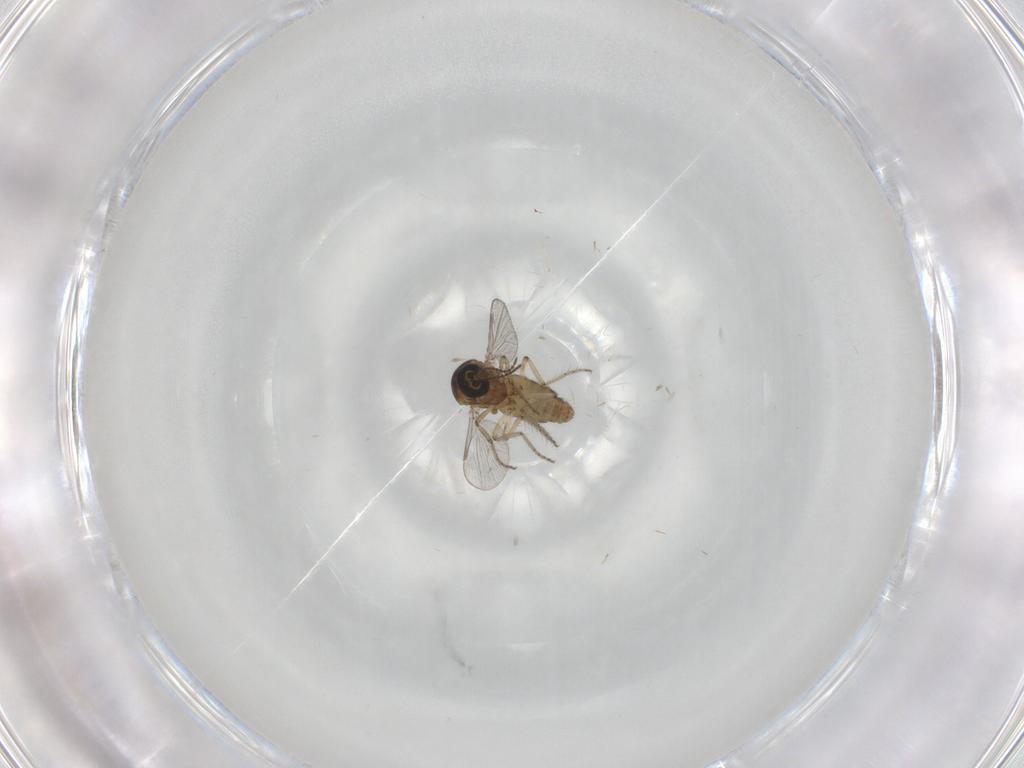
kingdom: Animalia
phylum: Arthropoda
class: Insecta
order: Diptera
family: Ceratopogonidae
